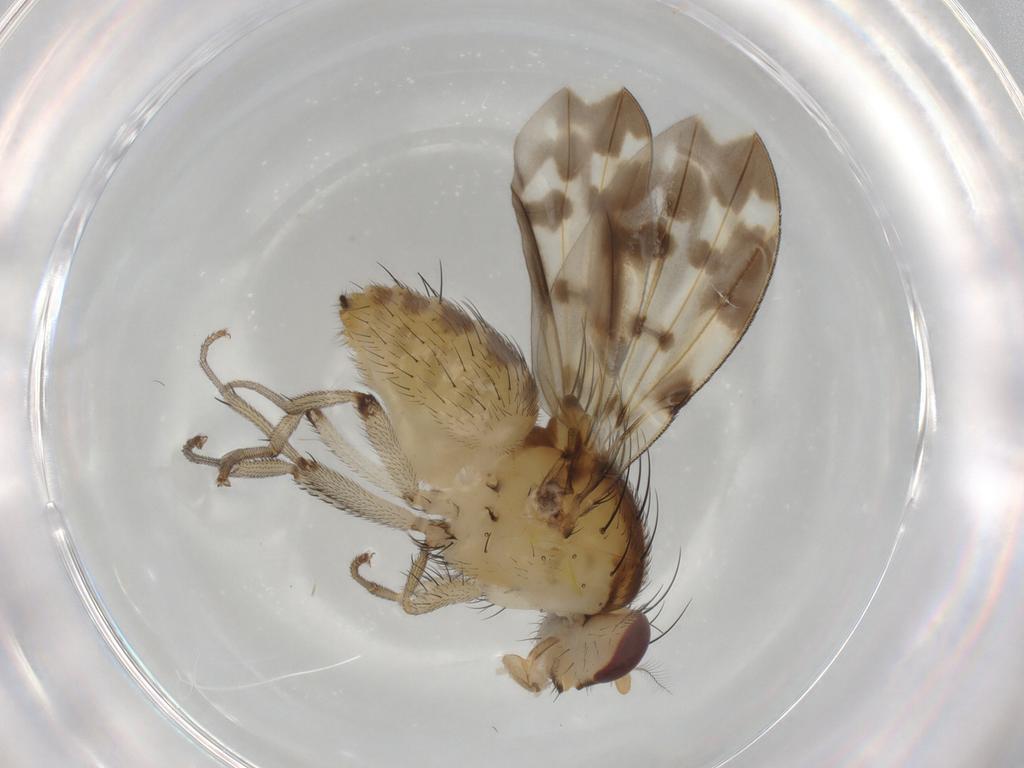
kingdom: Animalia
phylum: Arthropoda
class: Insecta
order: Diptera
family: Lauxaniidae
